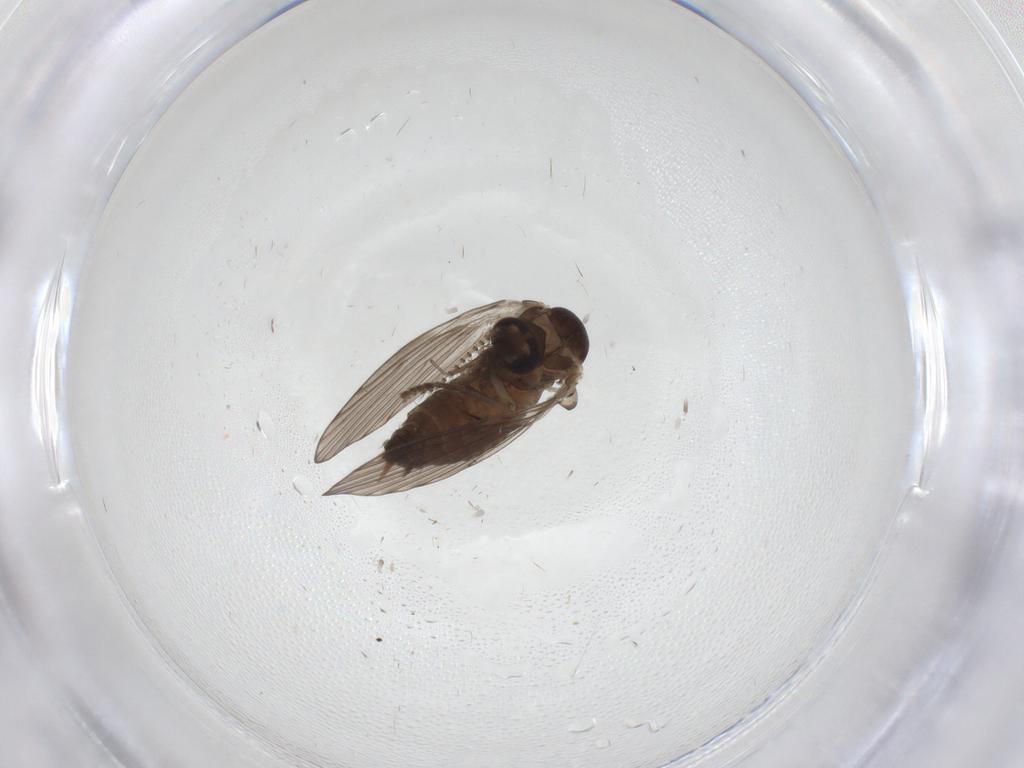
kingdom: Animalia
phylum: Arthropoda
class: Insecta
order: Diptera
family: Psychodidae
